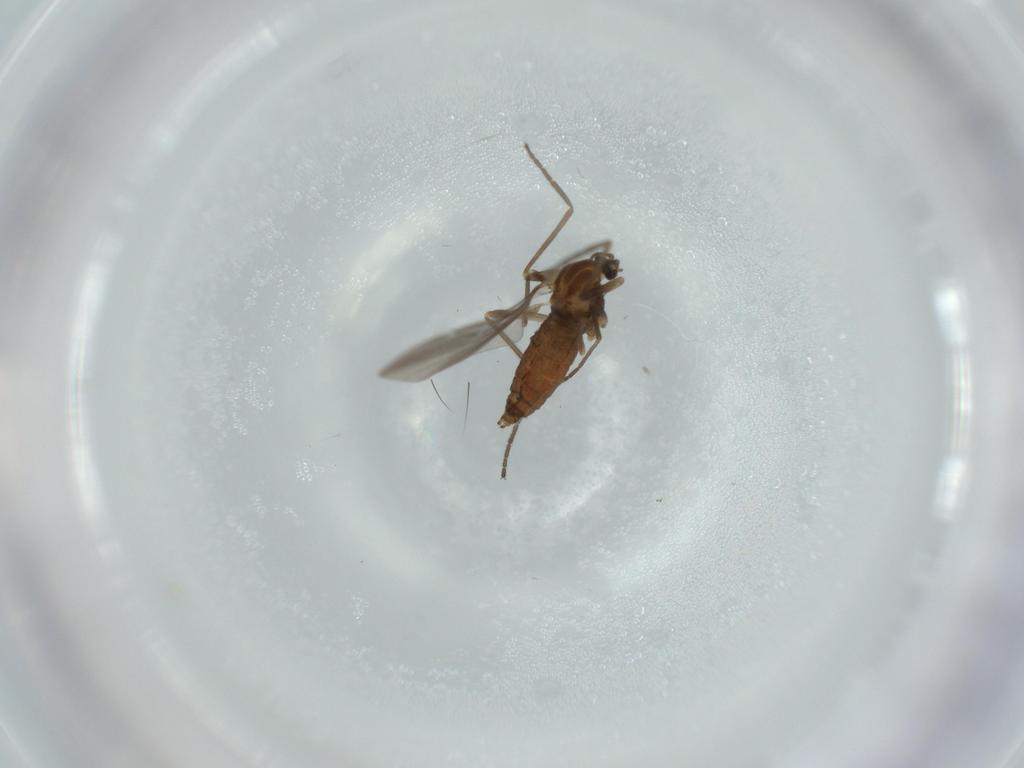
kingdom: Animalia
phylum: Arthropoda
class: Insecta
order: Diptera
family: Cecidomyiidae
